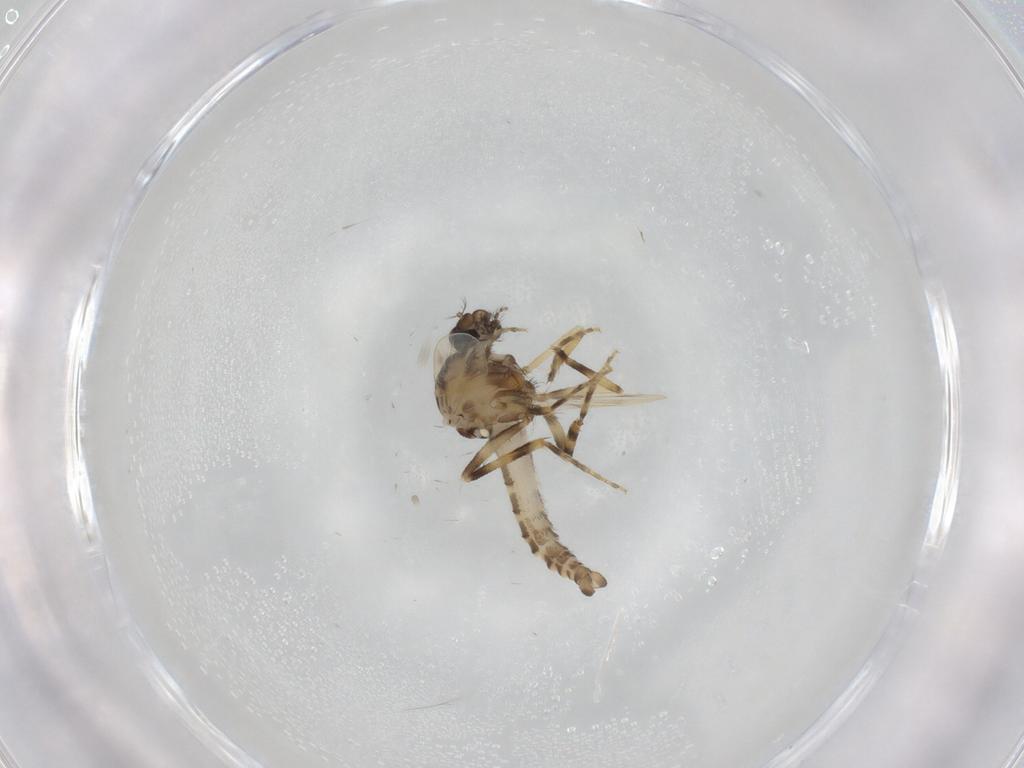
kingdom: Animalia
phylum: Arthropoda
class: Insecta
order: Diptera
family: Ceratopogonidae
